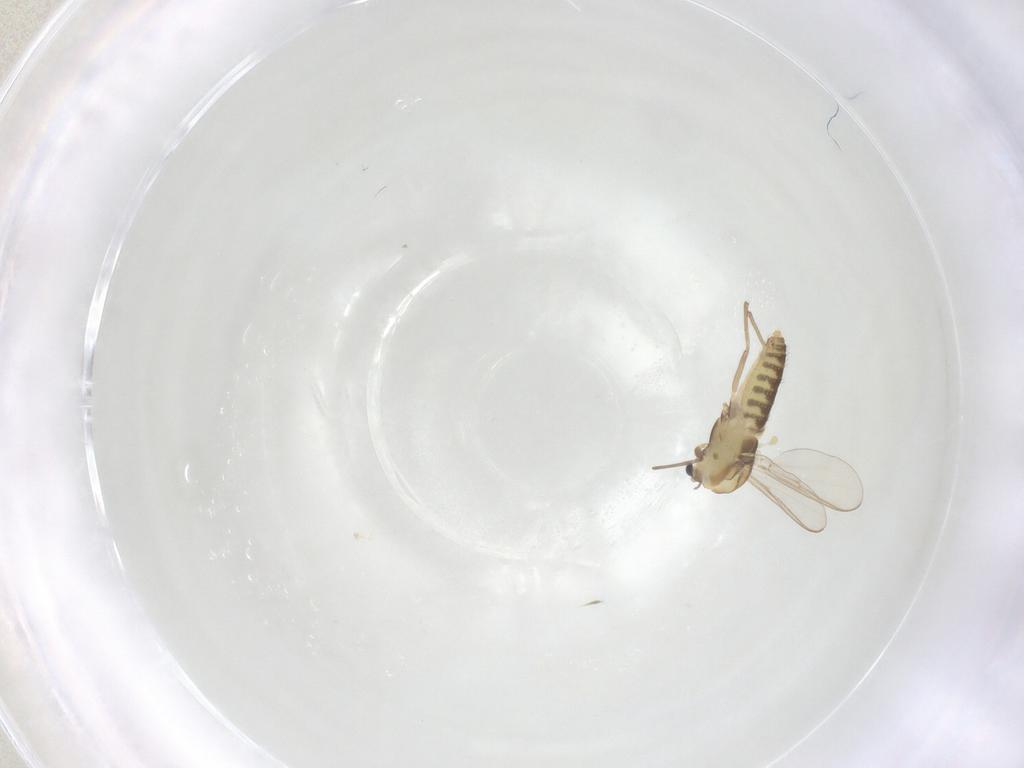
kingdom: Animalia
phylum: Arthropoda
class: Insecta
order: Diptera
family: Chironomidae
